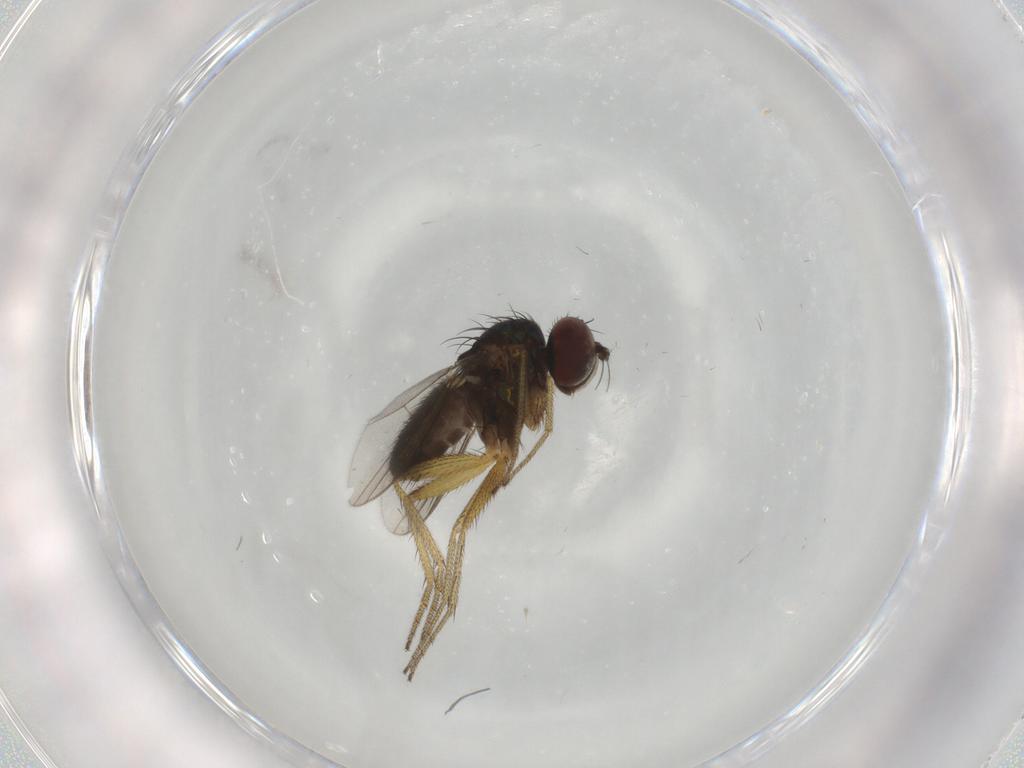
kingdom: Animalia
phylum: Arthropoda
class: Insecta
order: Diptera
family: Dolichopodidae
